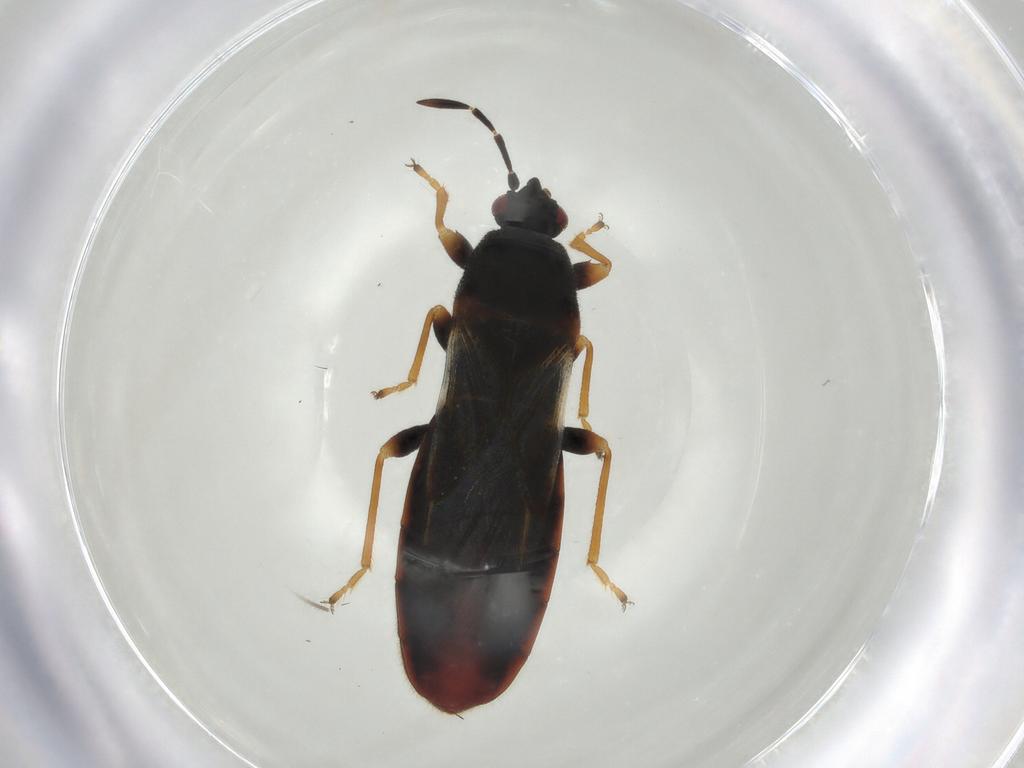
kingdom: Animalia
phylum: Arthropoda
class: Insecta
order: Hemiptera
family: Blissidae
